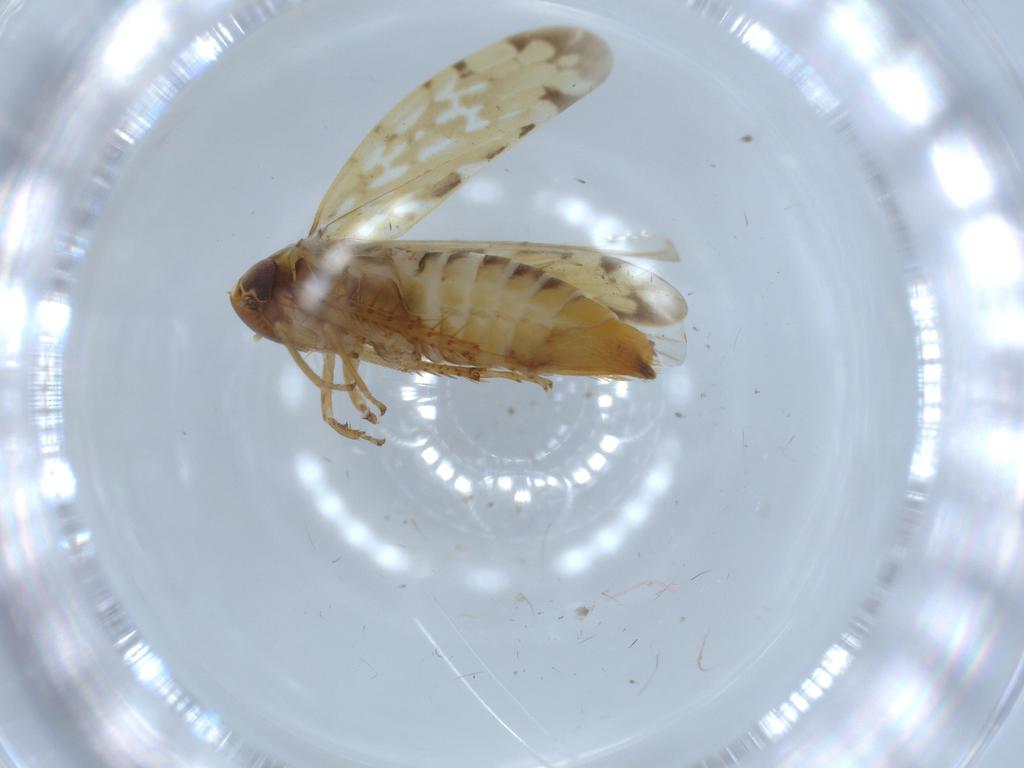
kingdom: Animalia
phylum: Arthropoda
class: Insecta
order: Hemiptera
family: Cicadellidae
